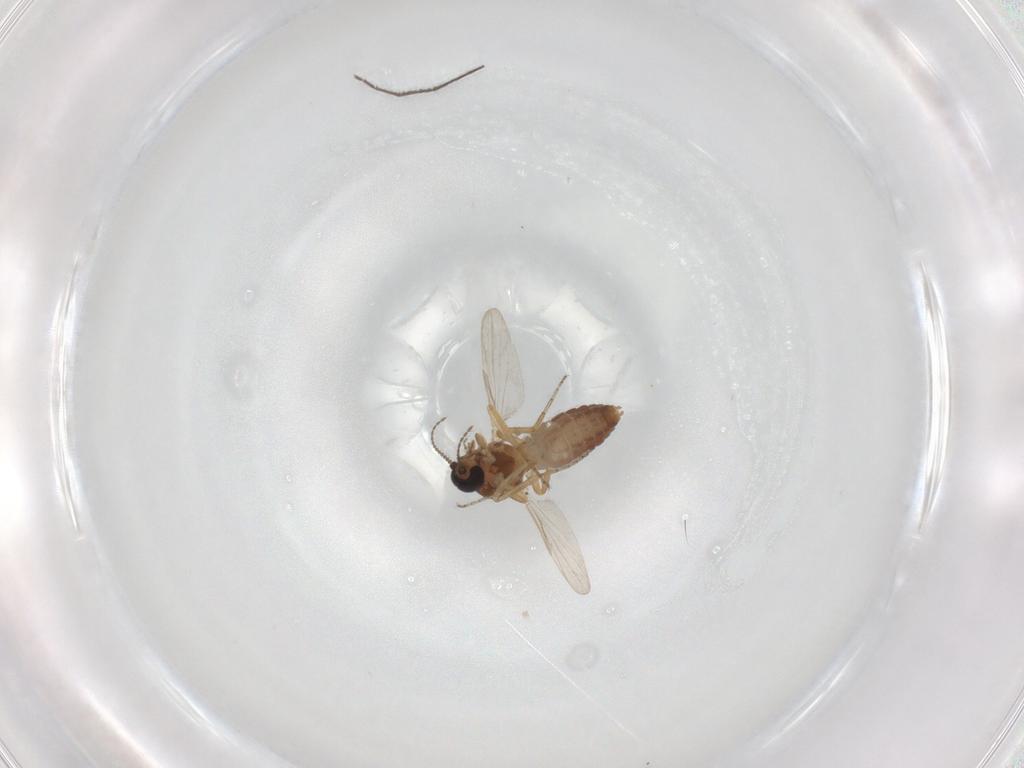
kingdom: Animalia
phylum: Arthropoda
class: Insecta
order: Diptera
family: Ceratopogonidae
